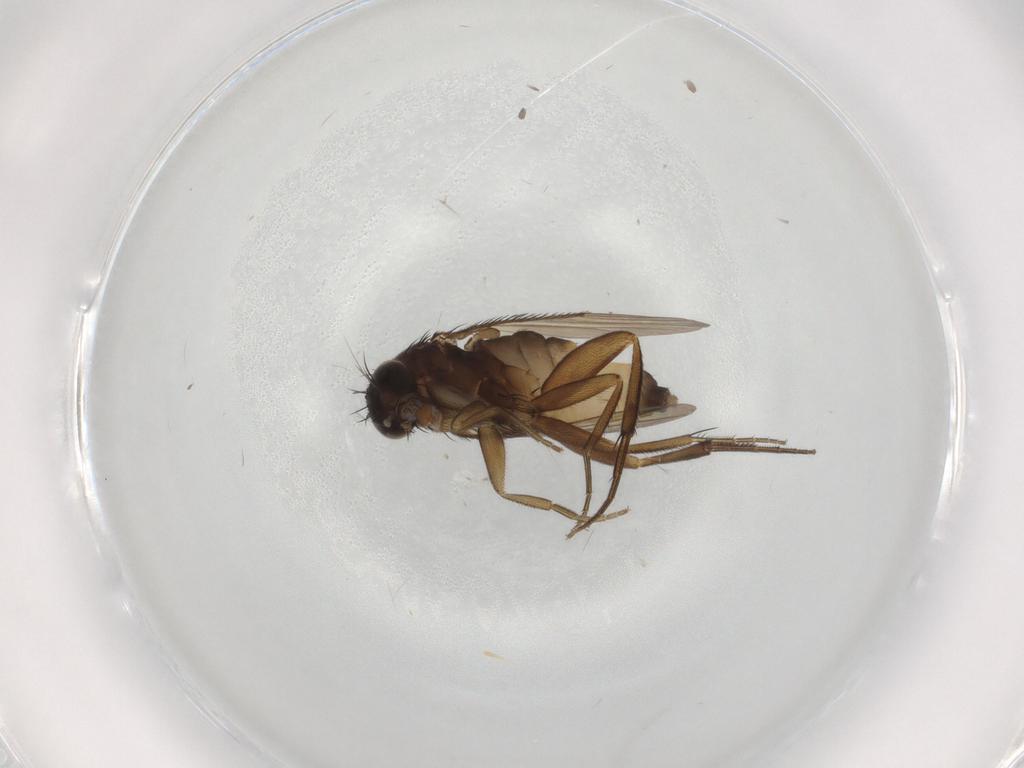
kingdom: Animalia
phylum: Arthropoda
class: Insecta
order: Diptera
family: Phoridae
